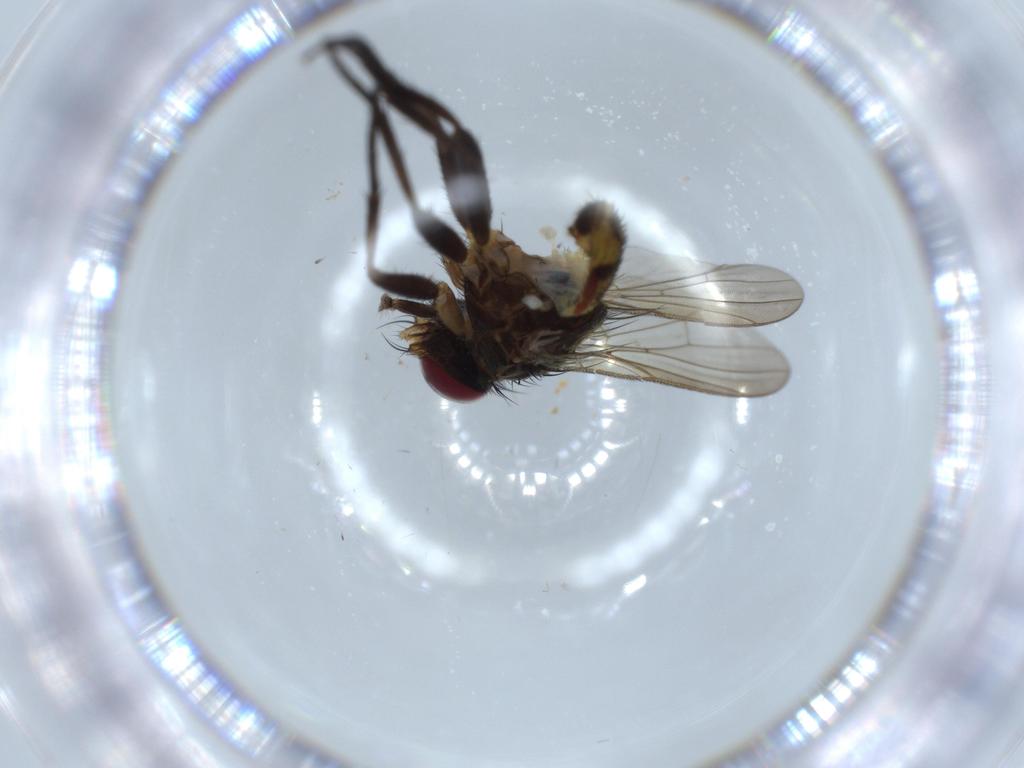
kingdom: Animalia
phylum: Arthropoda
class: Insecta
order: Diptera
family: Anthomyiidae
